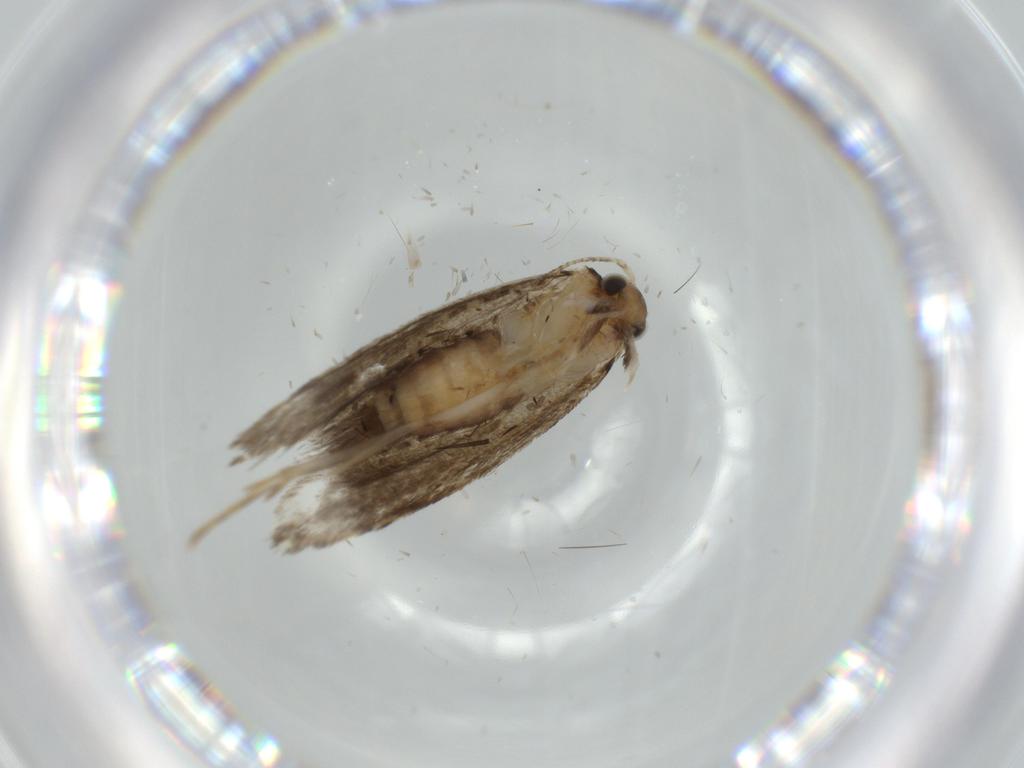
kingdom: Animalia
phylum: Arthropoda
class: Insecta
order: Lepidoptera
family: Tineidae
